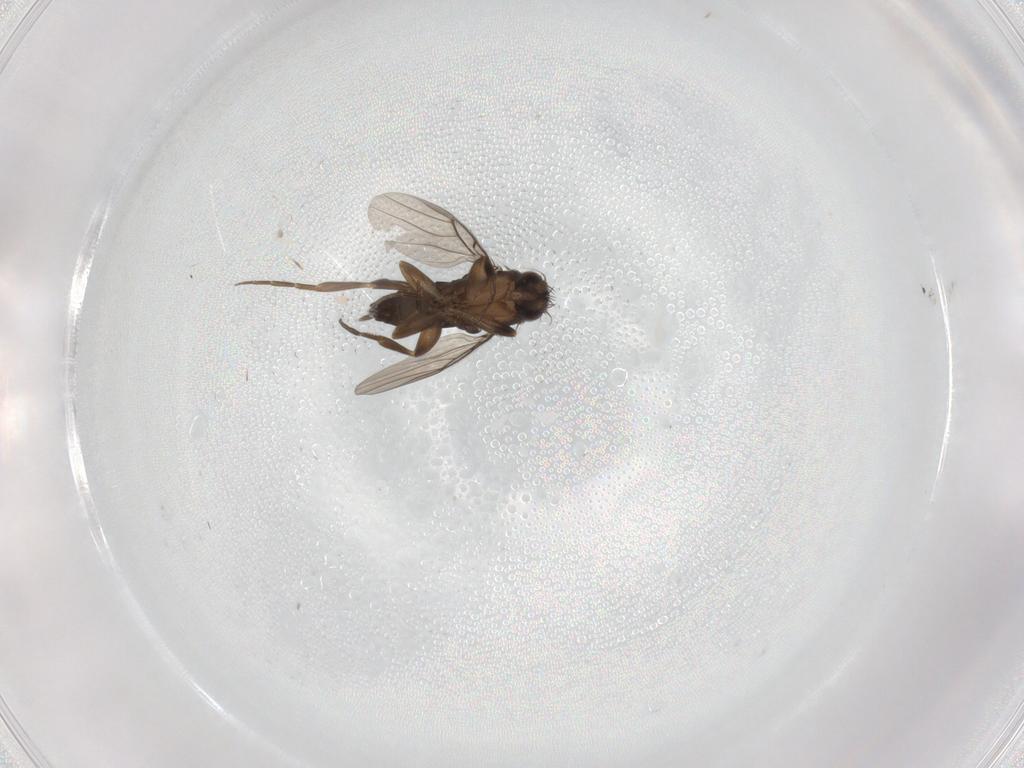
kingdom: Animalia
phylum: Arthropoda
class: Insecta
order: Diptera
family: Phoridae
